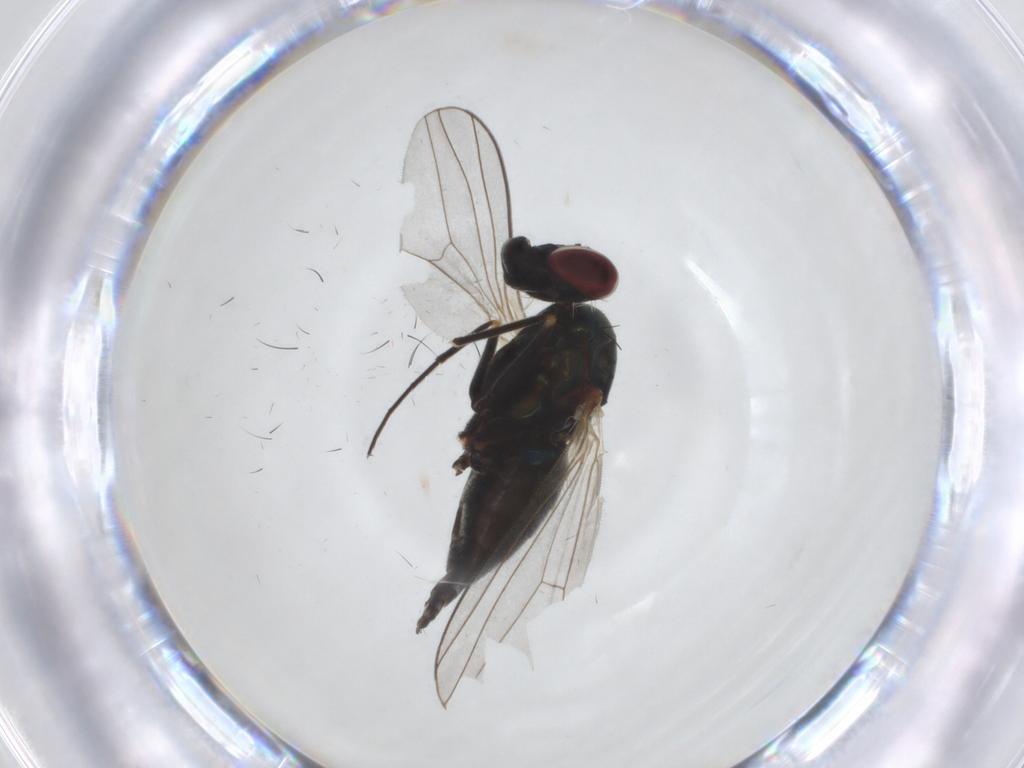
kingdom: Animalia
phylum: Arthropoda
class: Insecta
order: Diptera
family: Dolichopodidae
